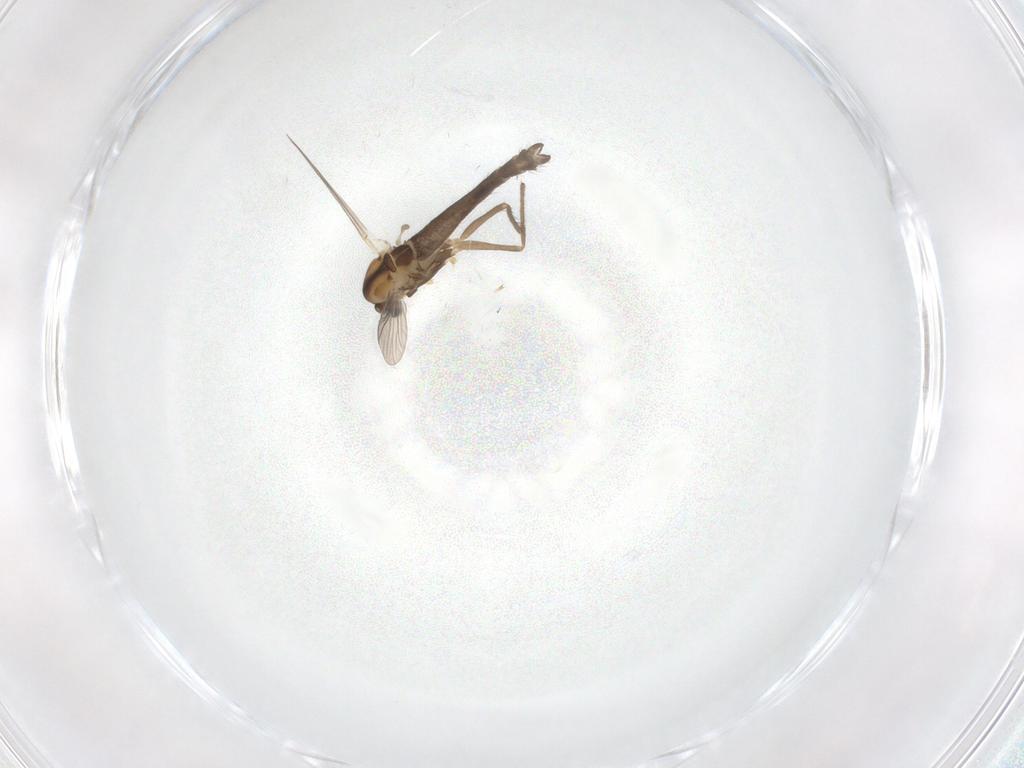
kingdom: Animalia
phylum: Arthropoda
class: Insecta
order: Diptera
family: Chironomidae
